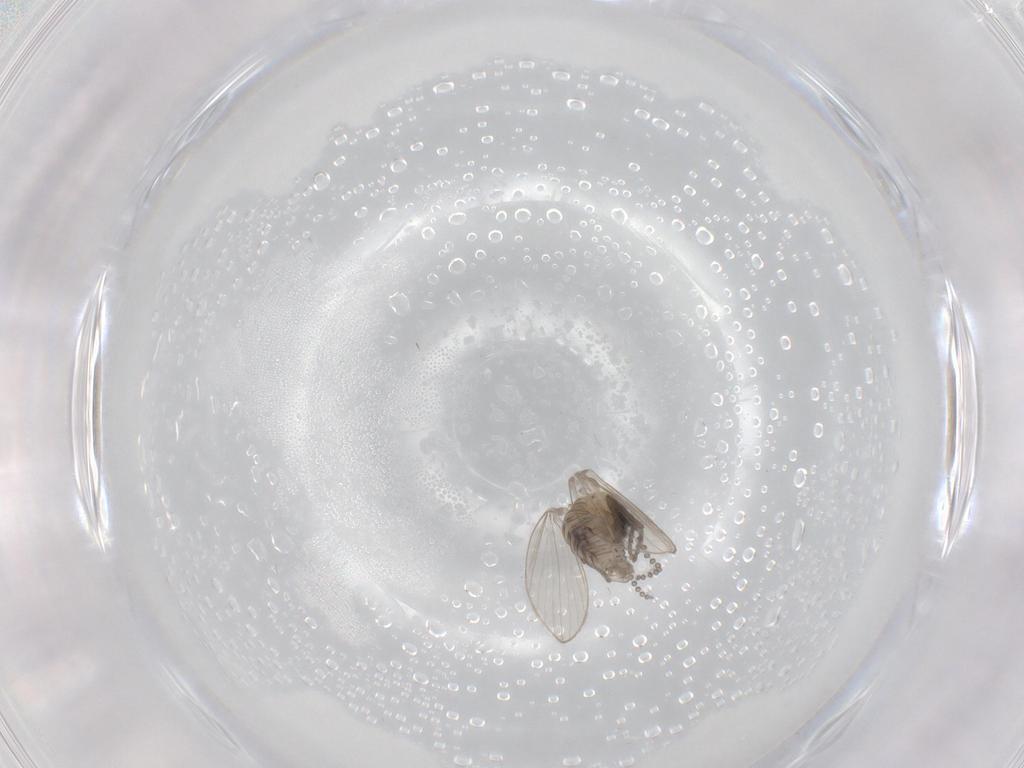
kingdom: Animalia
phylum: Arthropoda
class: Insecta
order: Diptera
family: Psychodidae
